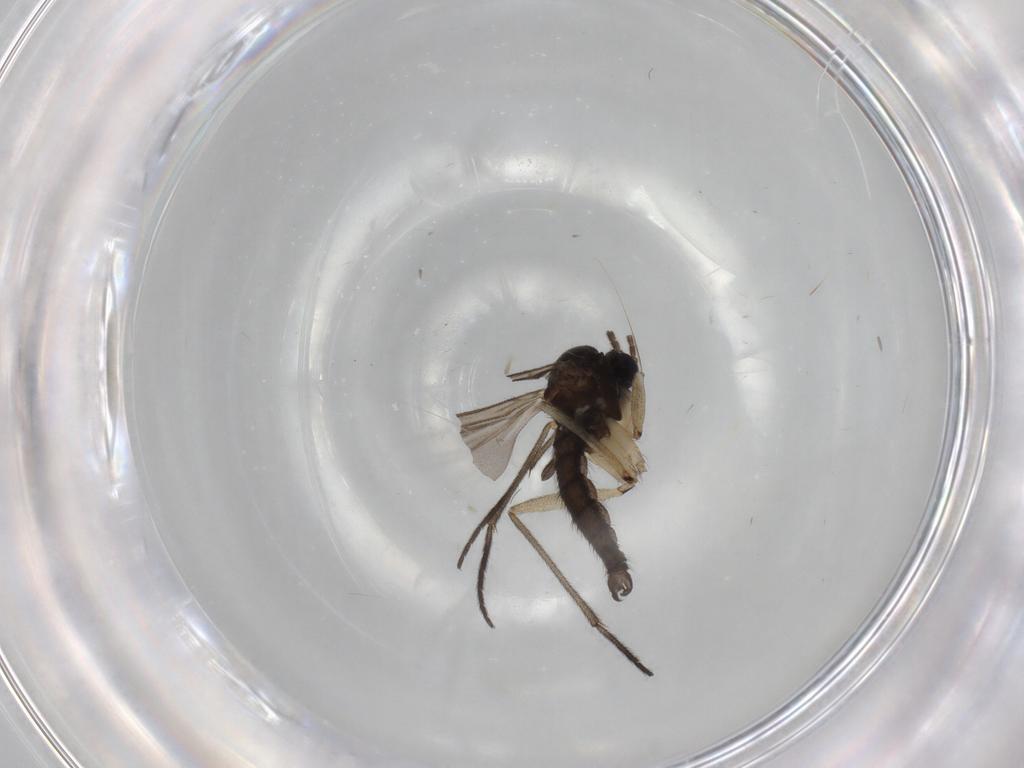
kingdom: Animalia
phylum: Arthropoda
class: Insecta
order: Diptera
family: Sciaridae
